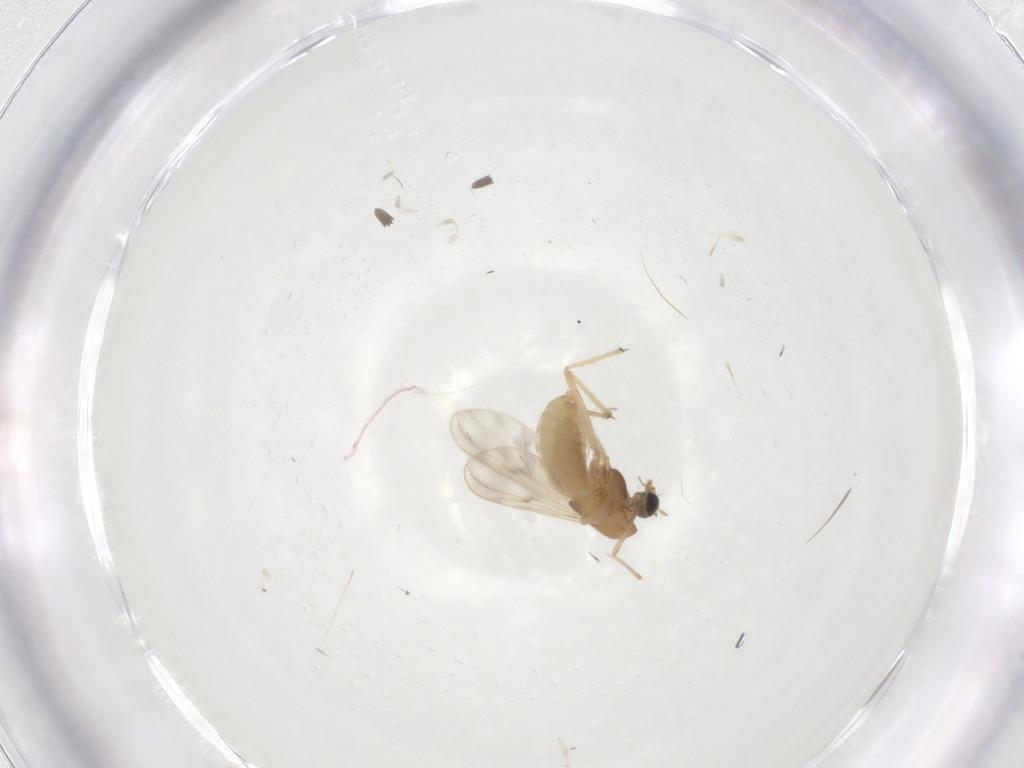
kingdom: Animalia
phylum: Arthropoda
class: Insecta
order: Diptera
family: Chironomidae
